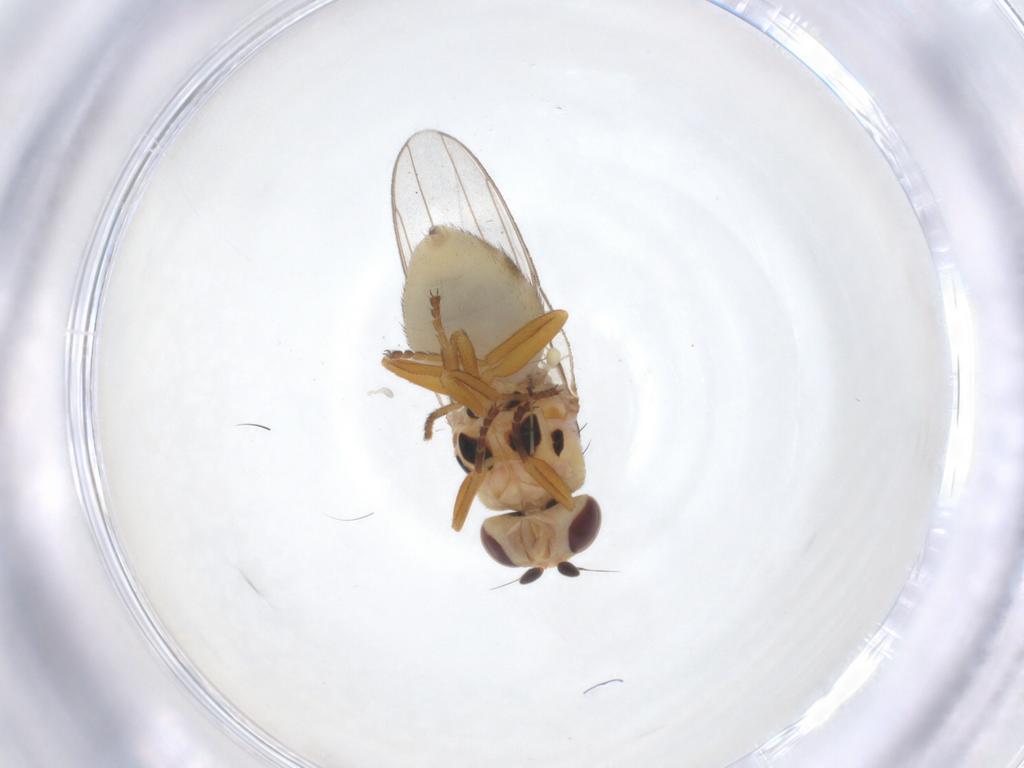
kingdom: Animalia
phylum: Arthropoda
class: Insecta
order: Diptera
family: Chloropidae
